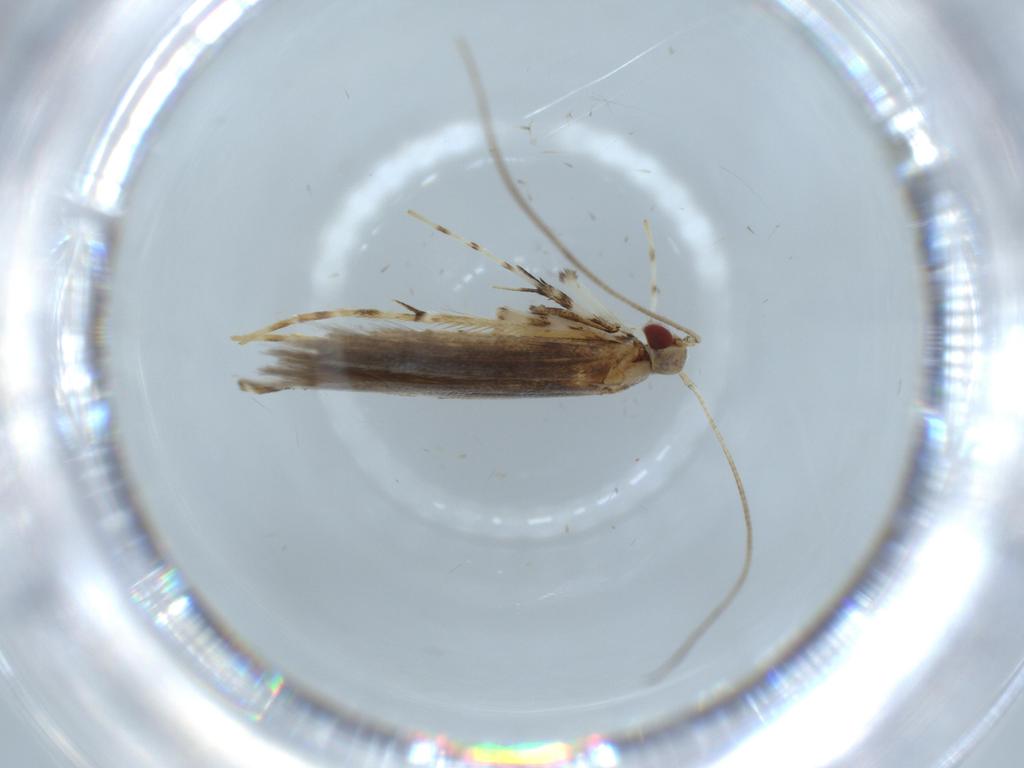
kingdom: Animalia
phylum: Arthropoda
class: Insecta
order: Lepidoptera
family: Gracillariidae
